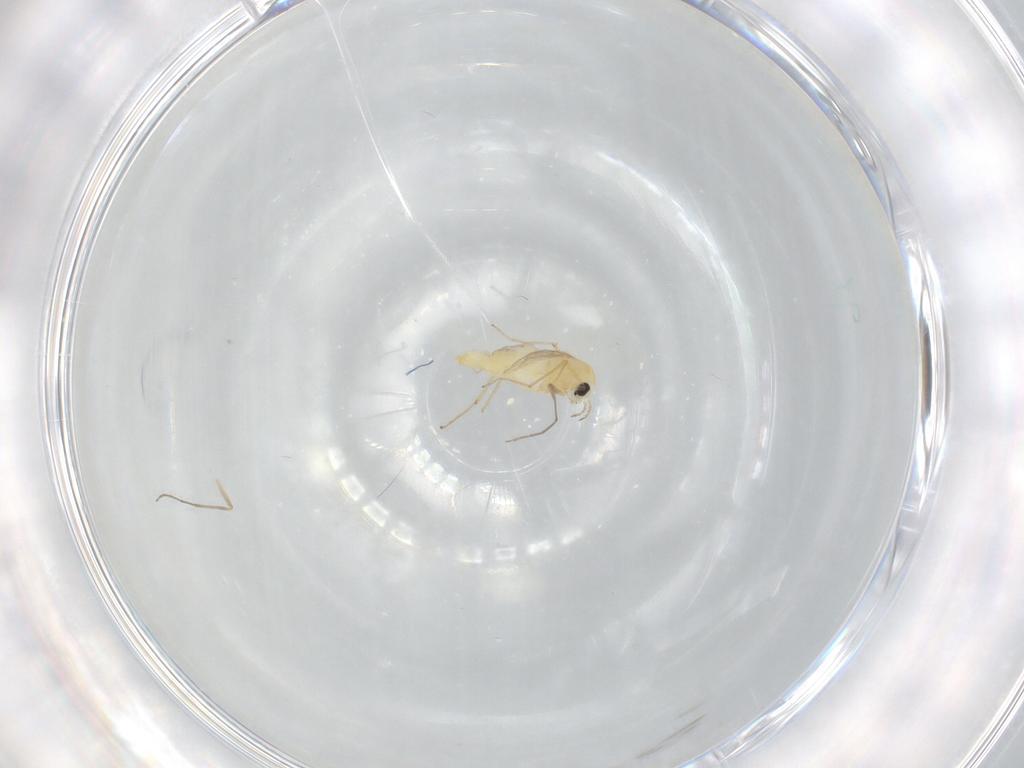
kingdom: Animalia
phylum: Arthropoda
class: Insecta
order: Diptera
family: Chironomidae
